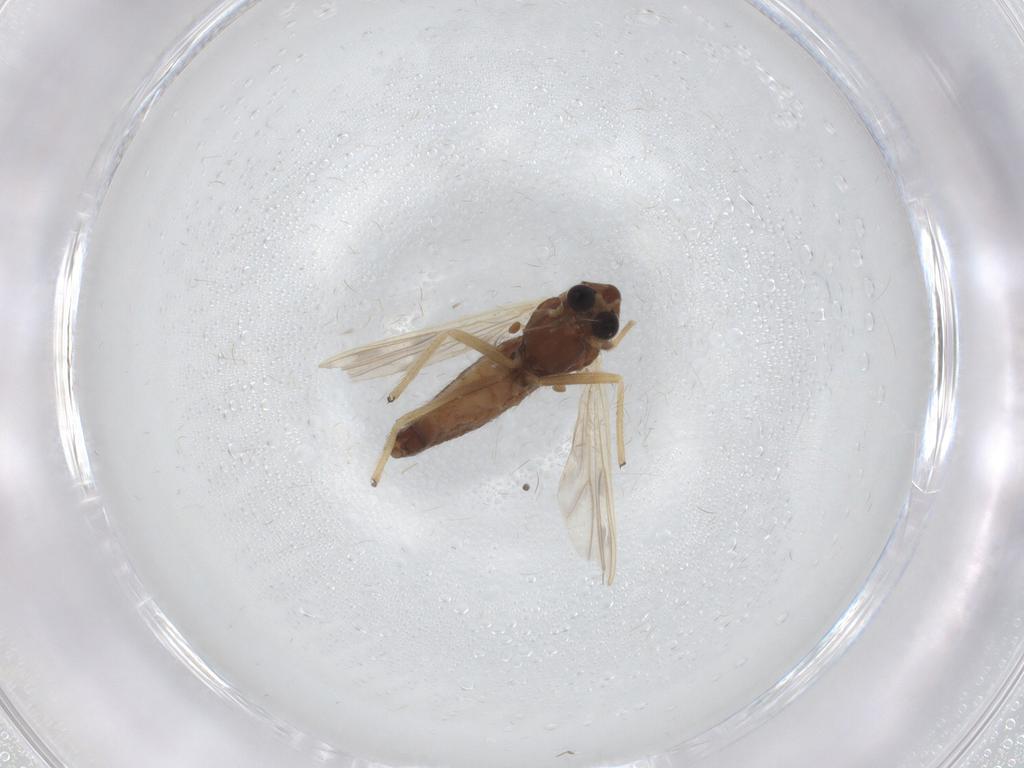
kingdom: Animalia
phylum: Arthropoda
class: Insecta
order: Diptera
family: Chironomidae
